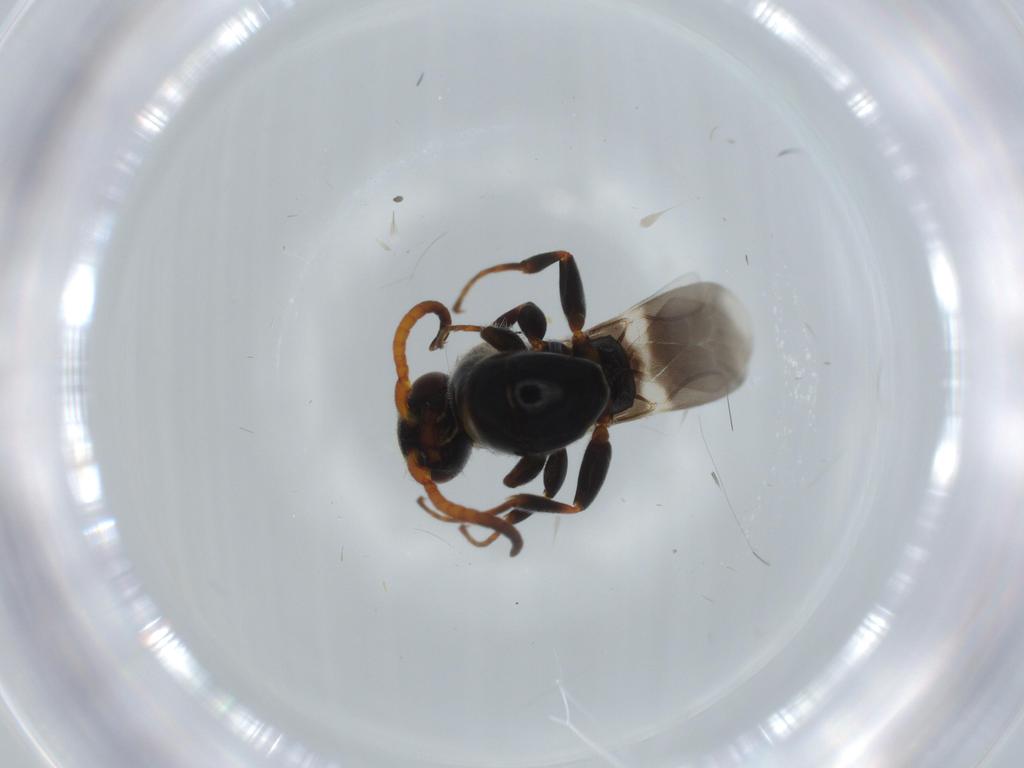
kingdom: Animalia
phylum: Arthropoda
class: Insecta
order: Hymenoptera
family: Bethylidae
